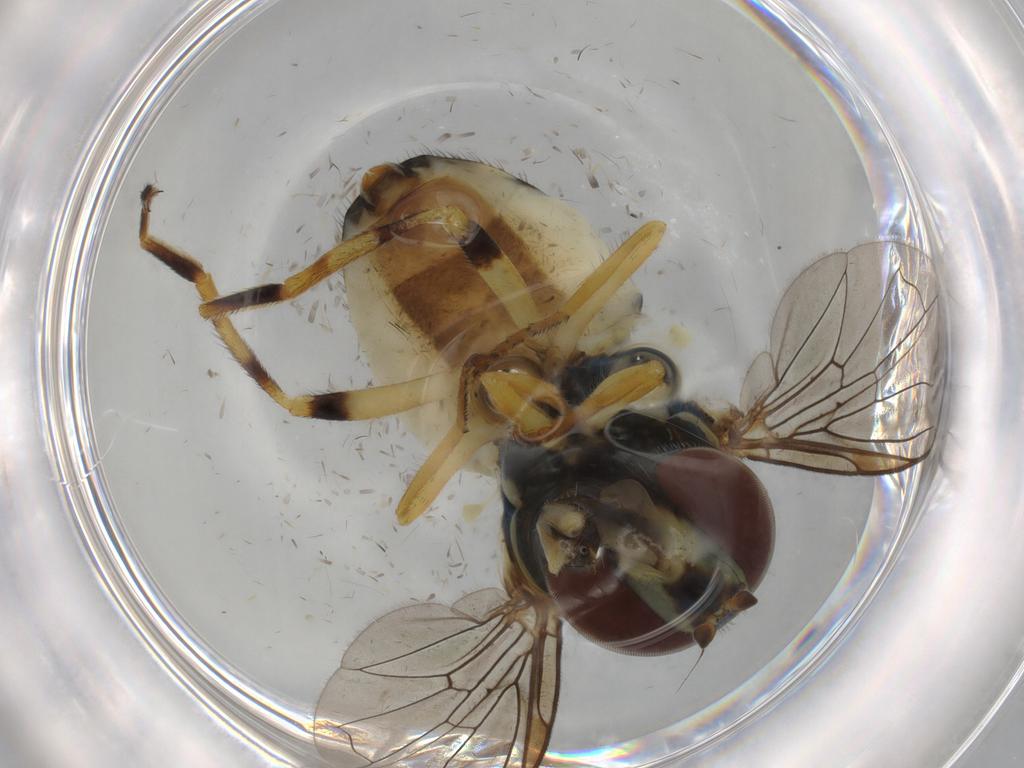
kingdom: Animalia
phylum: Arthropoda
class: Insecta
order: Diptera
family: Syrphidae
